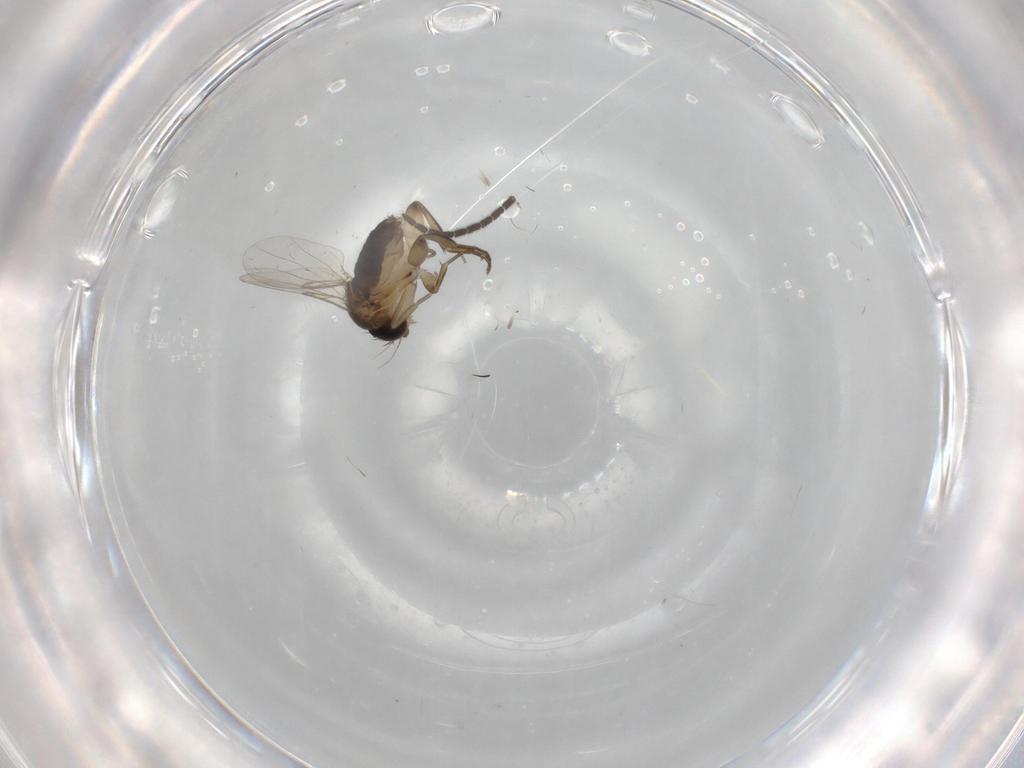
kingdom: Animalia
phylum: Arthropoda
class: Insecta
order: Diptera
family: Phoridae
